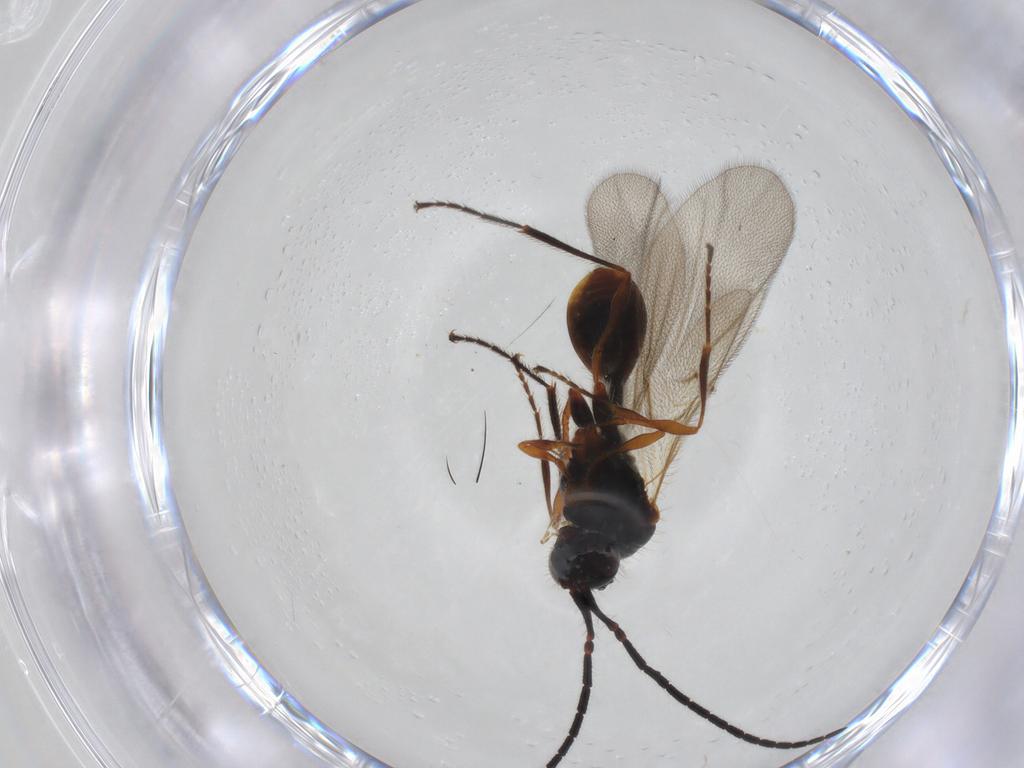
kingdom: Animalia
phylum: Arthropoda
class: Insecta
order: Hymenoptera
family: Diapriidae
